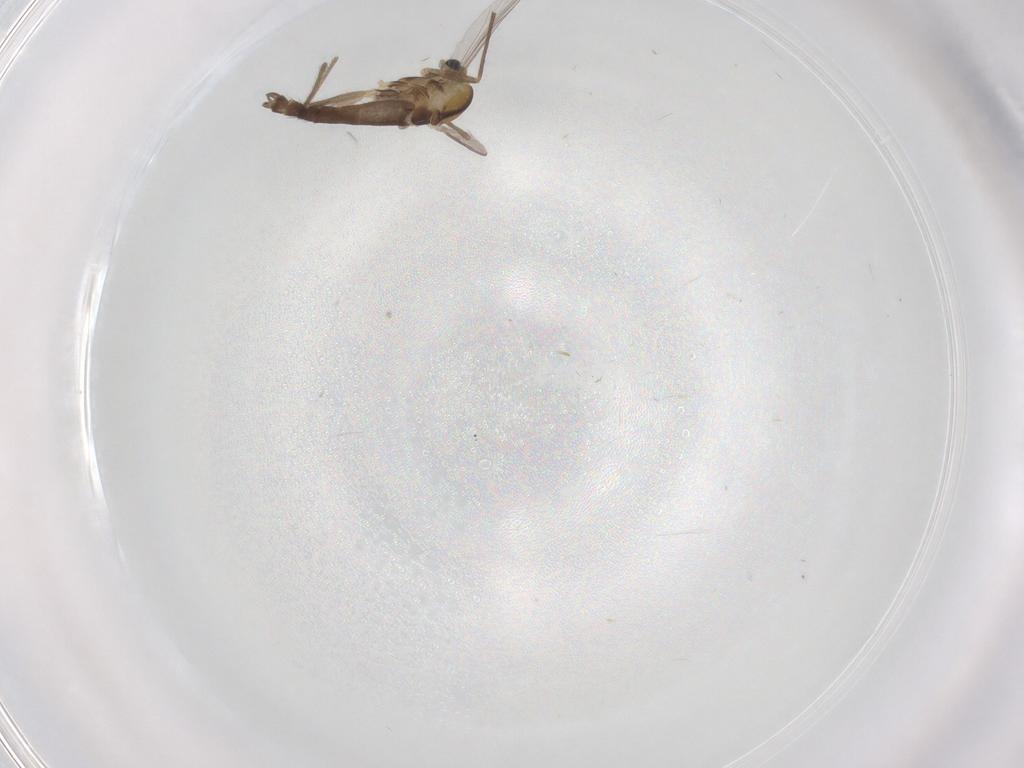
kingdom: Animalia
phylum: Arthropoda
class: Insecta
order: Diptera
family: Chironomidae
